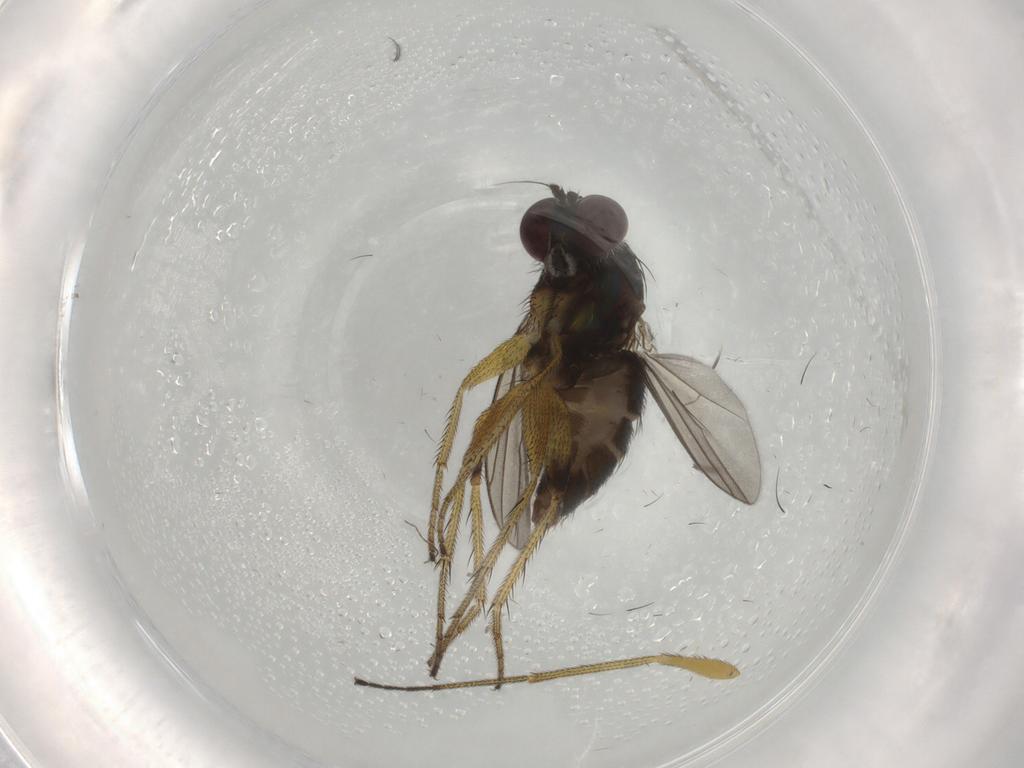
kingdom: Animalia
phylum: Arthropoda
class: Insecta
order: Diptera
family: Dolichopodidae
